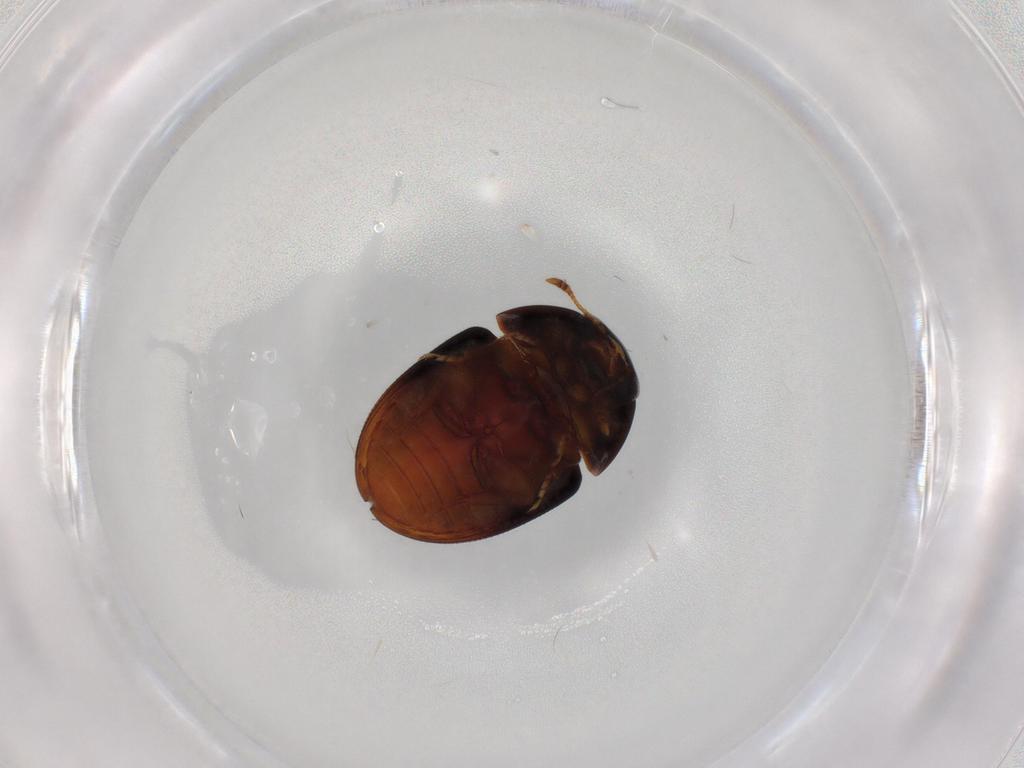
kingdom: Animalia
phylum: Arthropoda
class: Insecta
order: Coleoptera
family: Phalacridae
